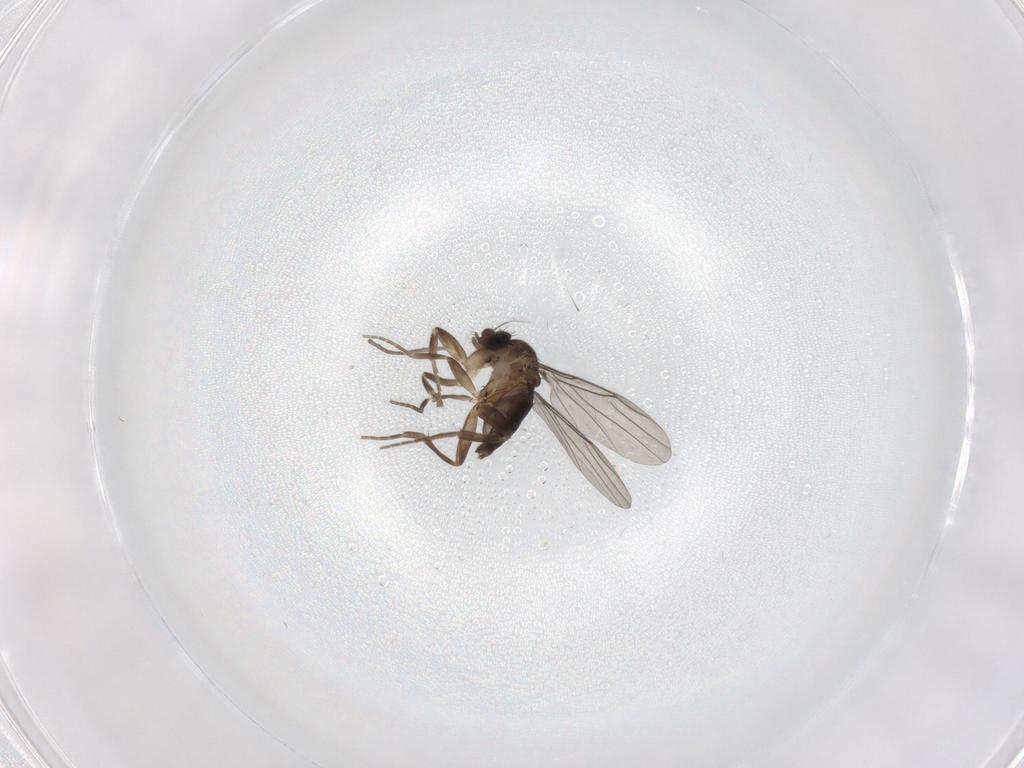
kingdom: Animalia
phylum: Arthropoda
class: Insecta
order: Diptera
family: Cecidomyiidae
